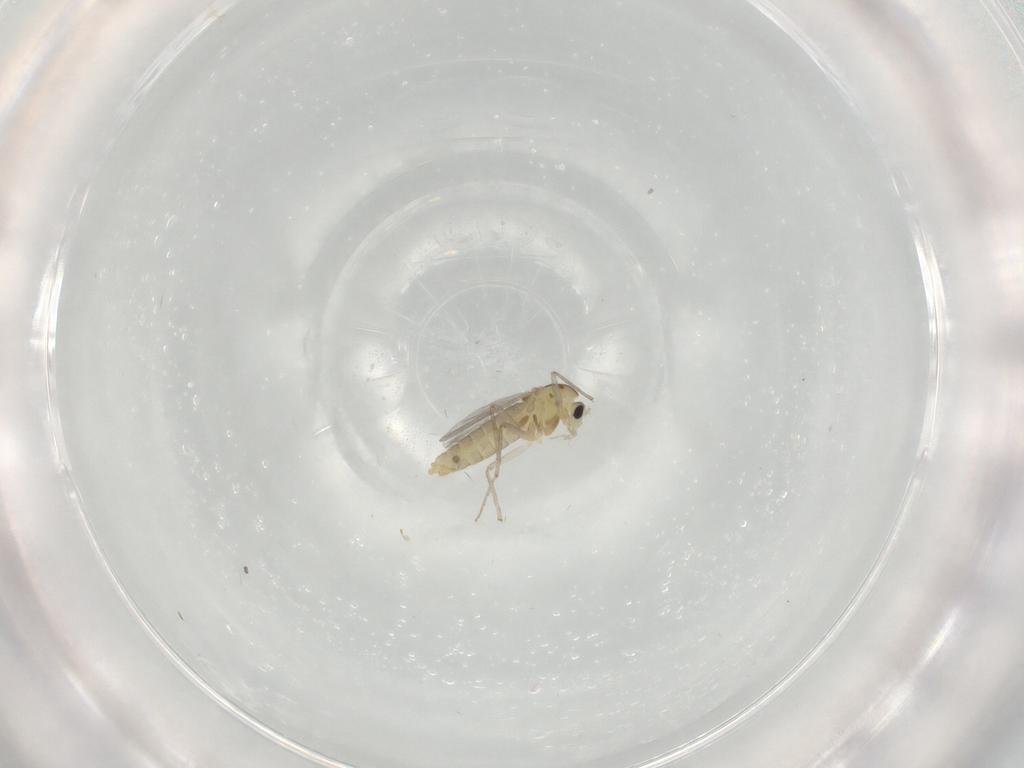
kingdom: Animalia
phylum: Arthropoda
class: Insecta
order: Diptera
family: Chironomidae
